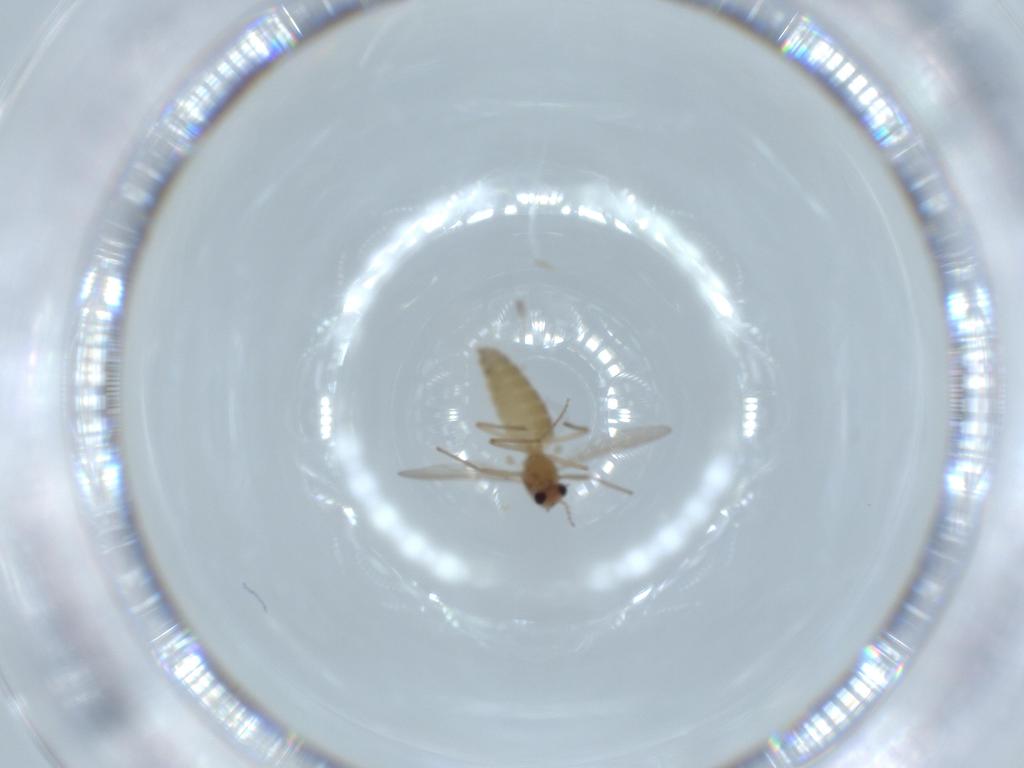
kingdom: Animalia
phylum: Arthropoda
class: Insecta
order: Diptera
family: Chironomidae
